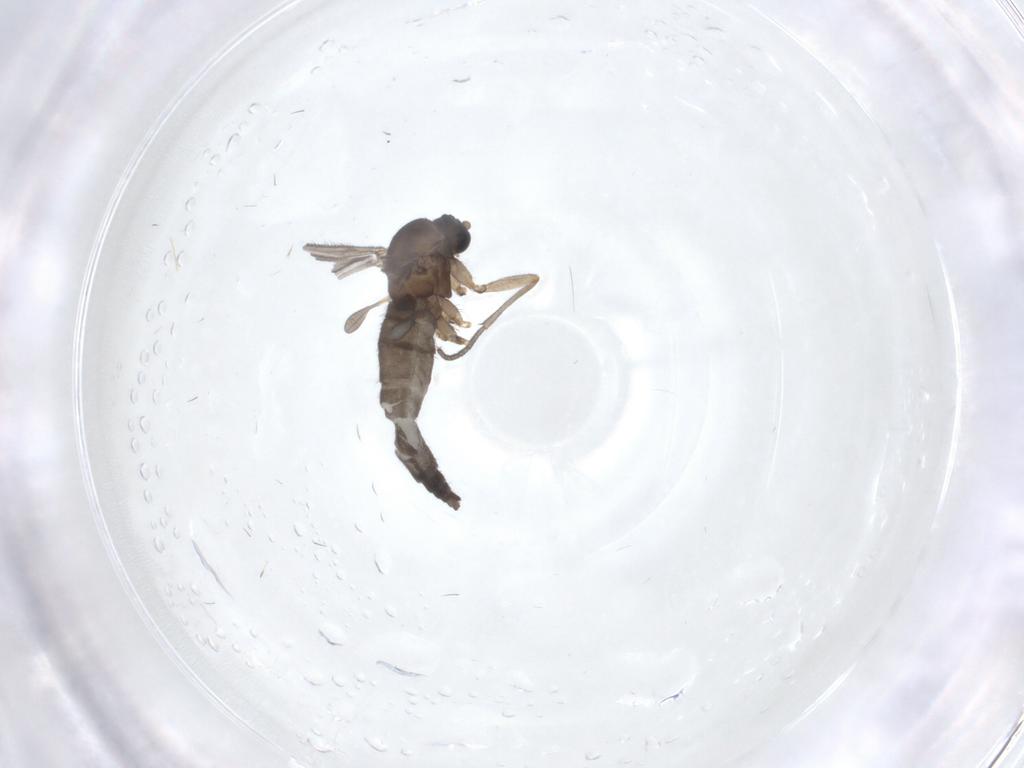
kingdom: Animalia
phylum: Arthropoda
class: Insecta
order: Diptera
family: Sciaridae
